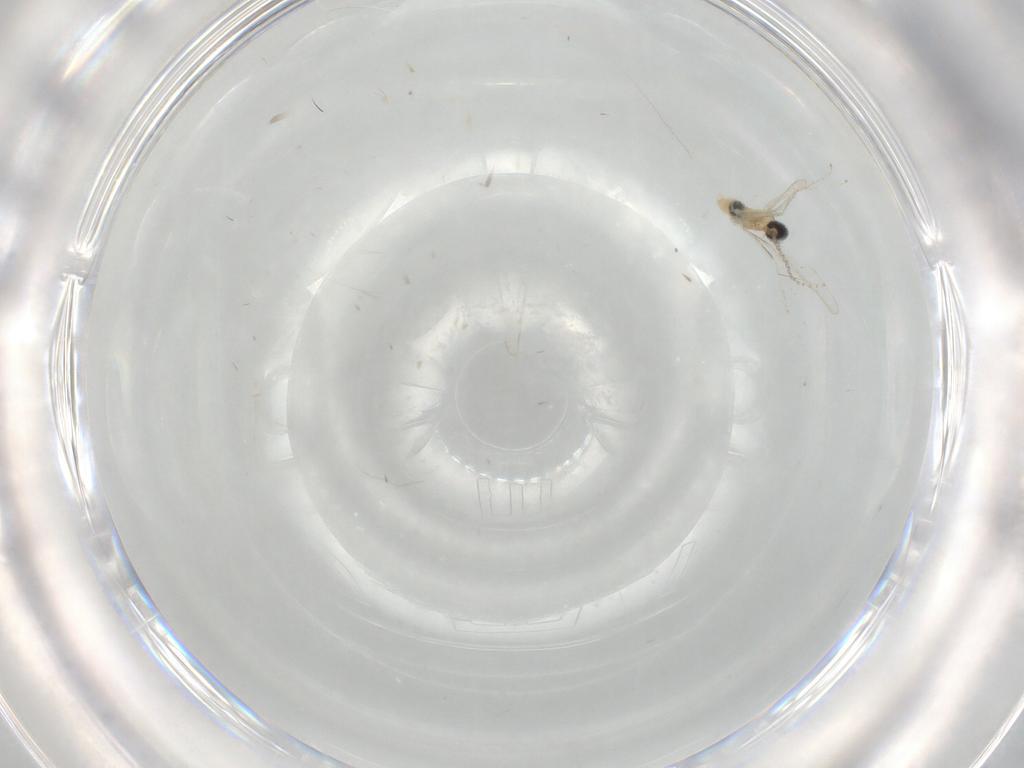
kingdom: Animalia
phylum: Arthropoda
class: Insecta
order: Diptera
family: Cecidomyiidae
